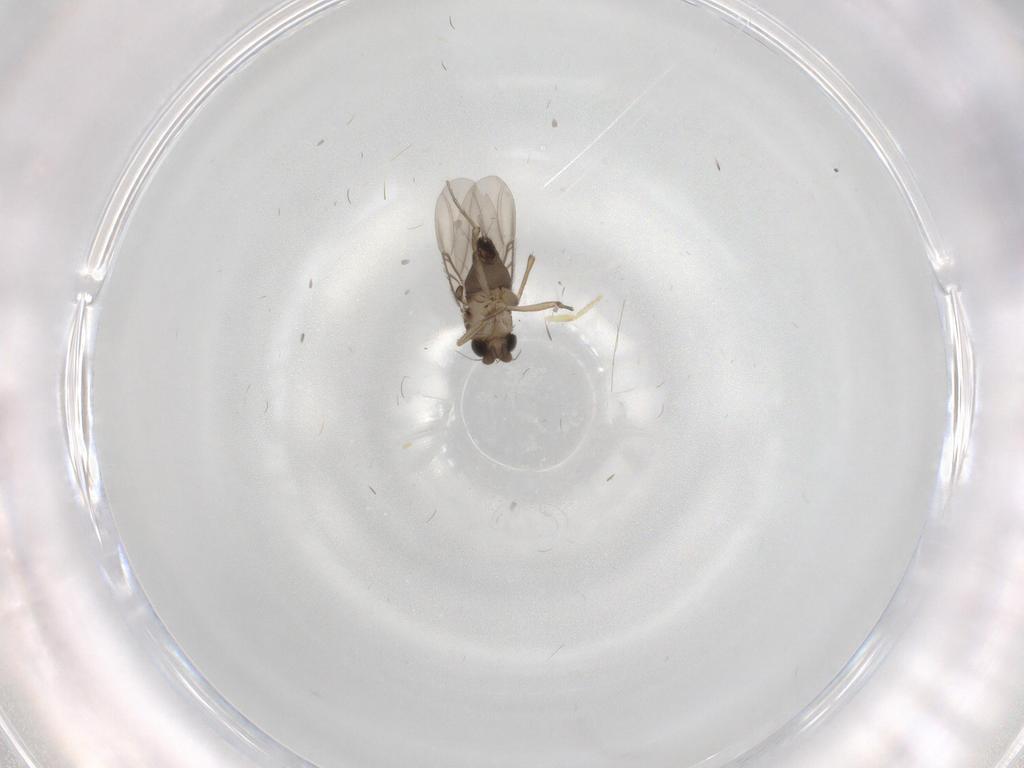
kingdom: Animalia
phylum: Arthropoda
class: Insecta
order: Diptera
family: Phoridae
